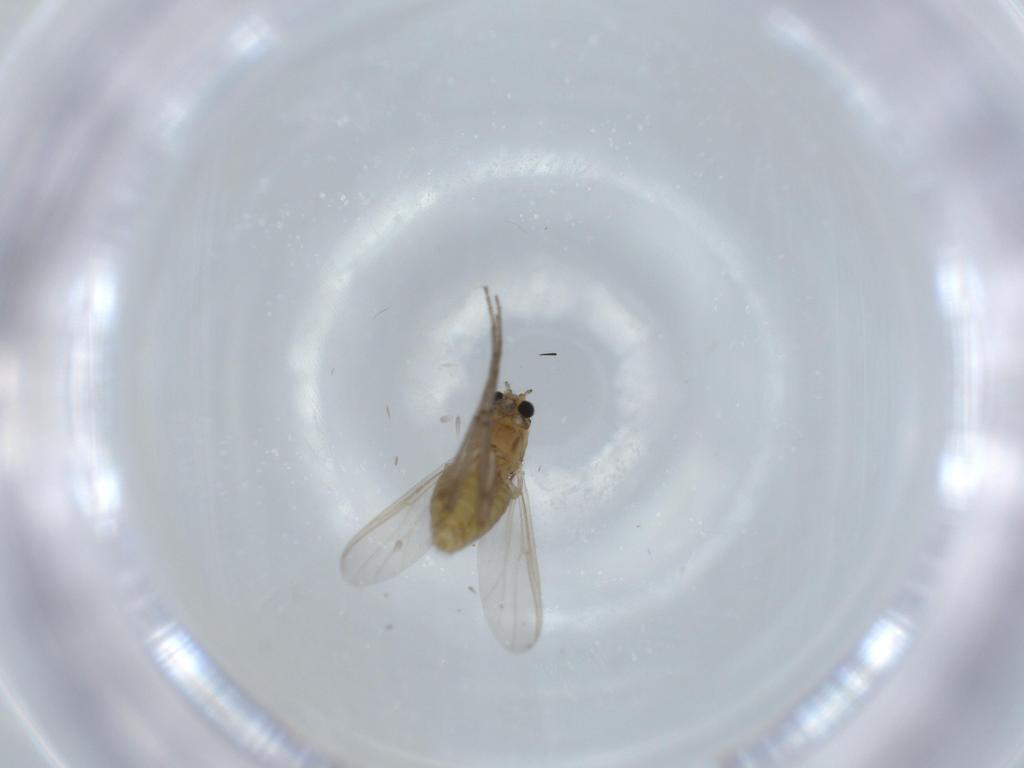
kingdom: Animalia
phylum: Arthropoda
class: Insecta
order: Diptera
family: Chironomidae
